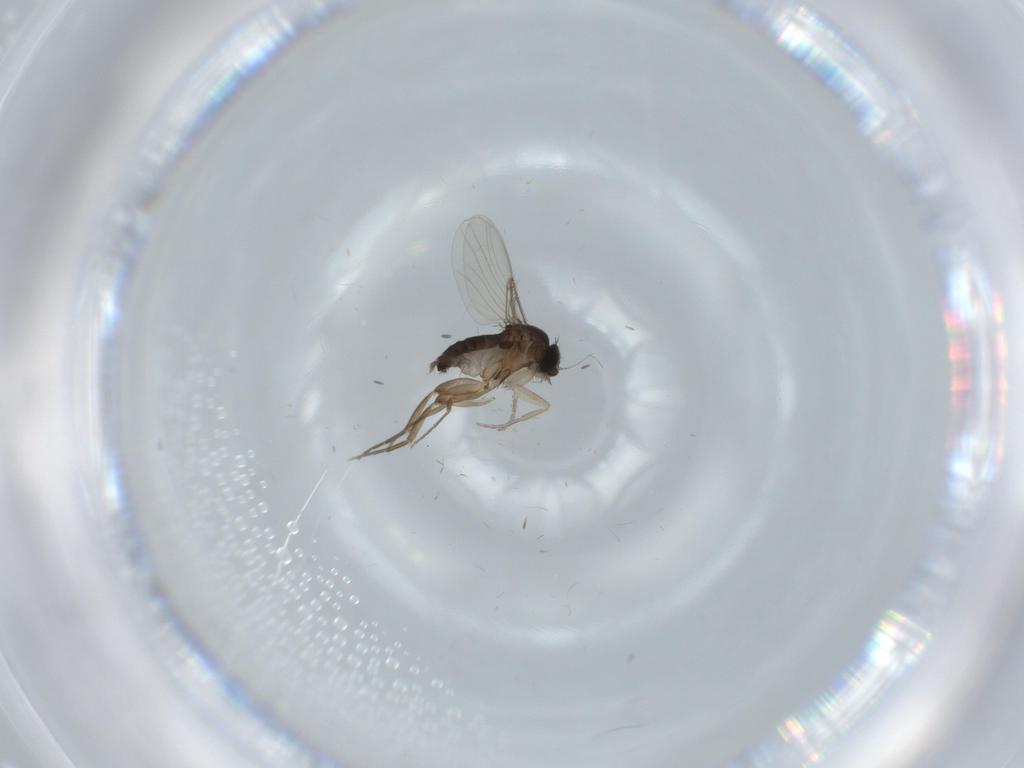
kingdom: Animalia
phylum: Arthropoda
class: Insecta
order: Diptera
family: Phoridae
